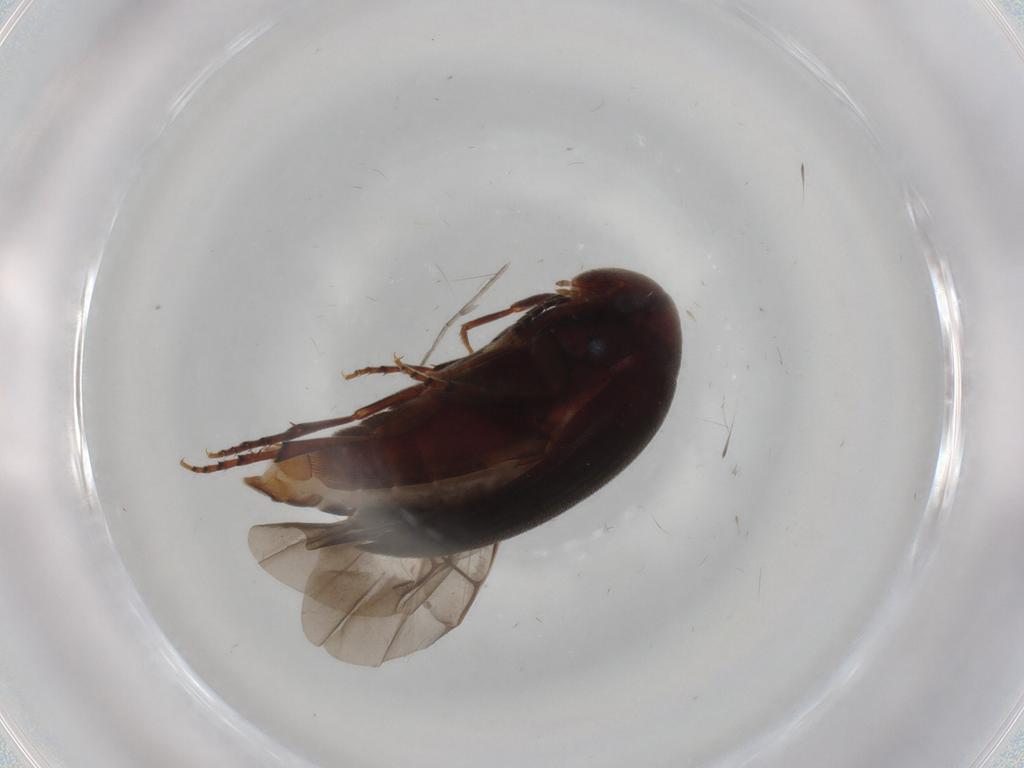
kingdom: Animalia
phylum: Arthropoda
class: Insecta
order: Coleoptera
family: Eucinetidae
